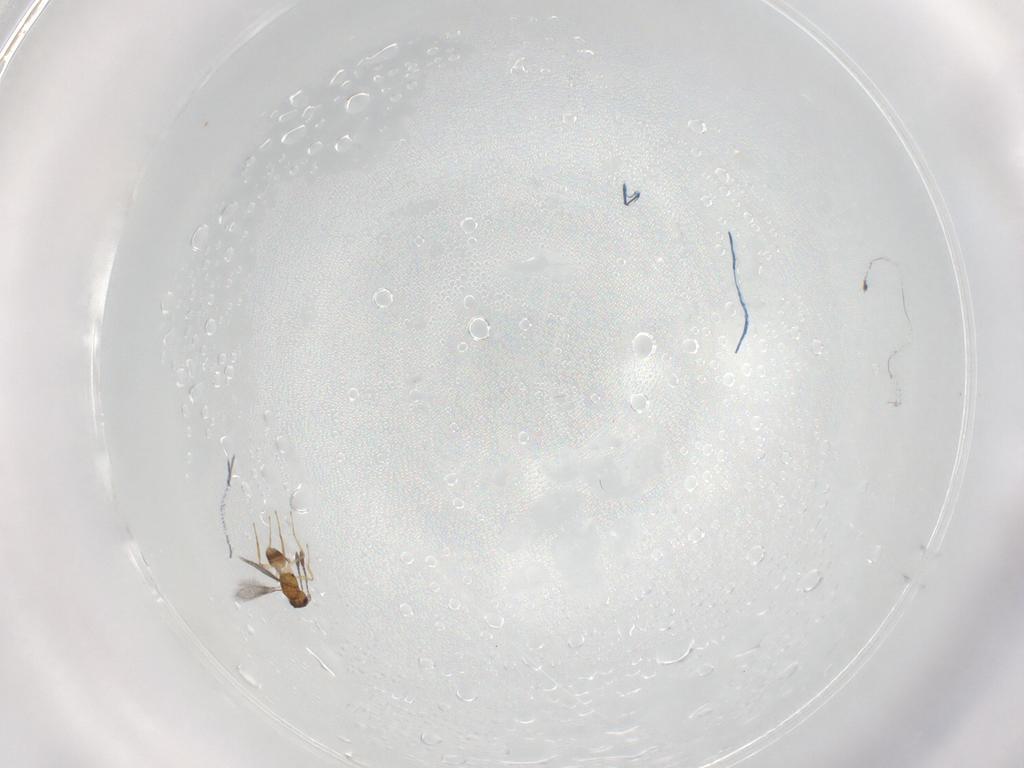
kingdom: Animalia
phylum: Arthropoda
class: Insecta
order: Hymenoptera
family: Mymaridae
